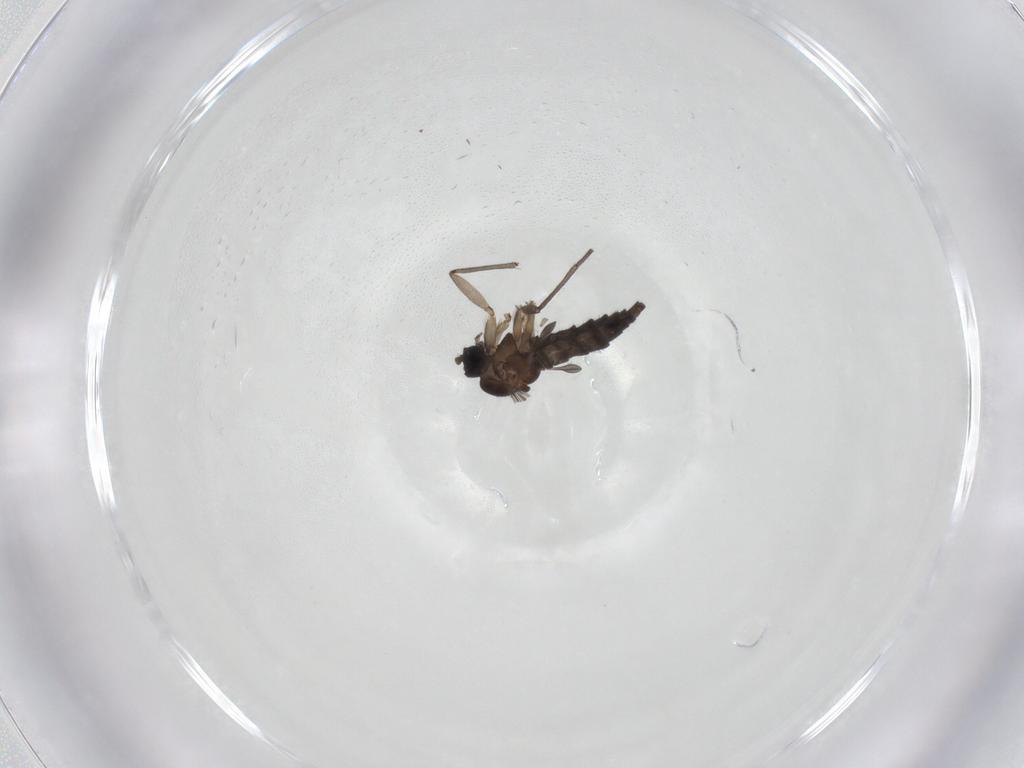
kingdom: Animalia
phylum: Arthropoda
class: Insecta
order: Diptera
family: Sciaridae
